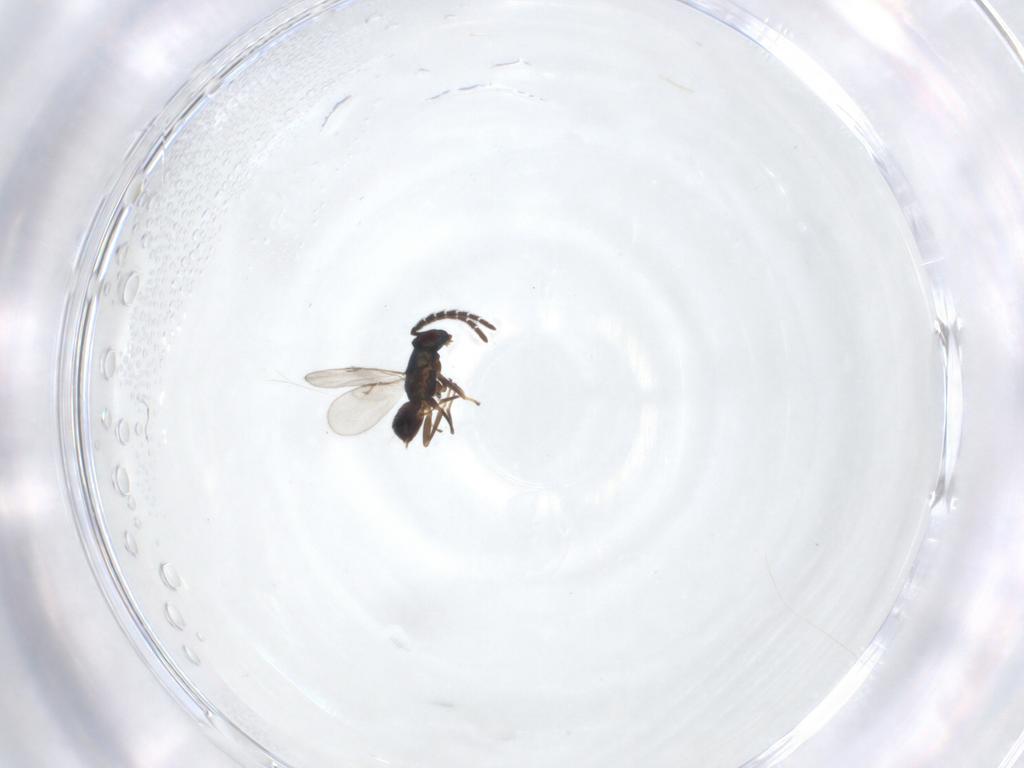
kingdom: Animalia
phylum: Arthropoda
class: Insecta
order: Hymenoptera
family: Encyrtidae
